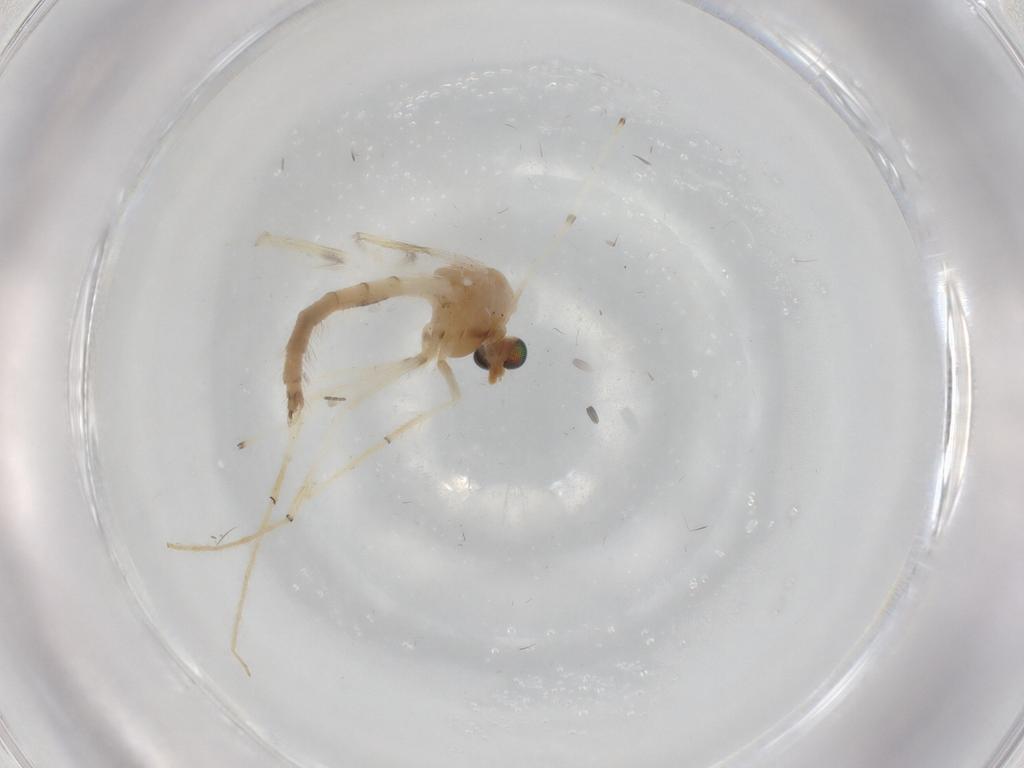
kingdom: Animalia
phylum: Arthropoda
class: Insecta
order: Diptera
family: Chironomidae
